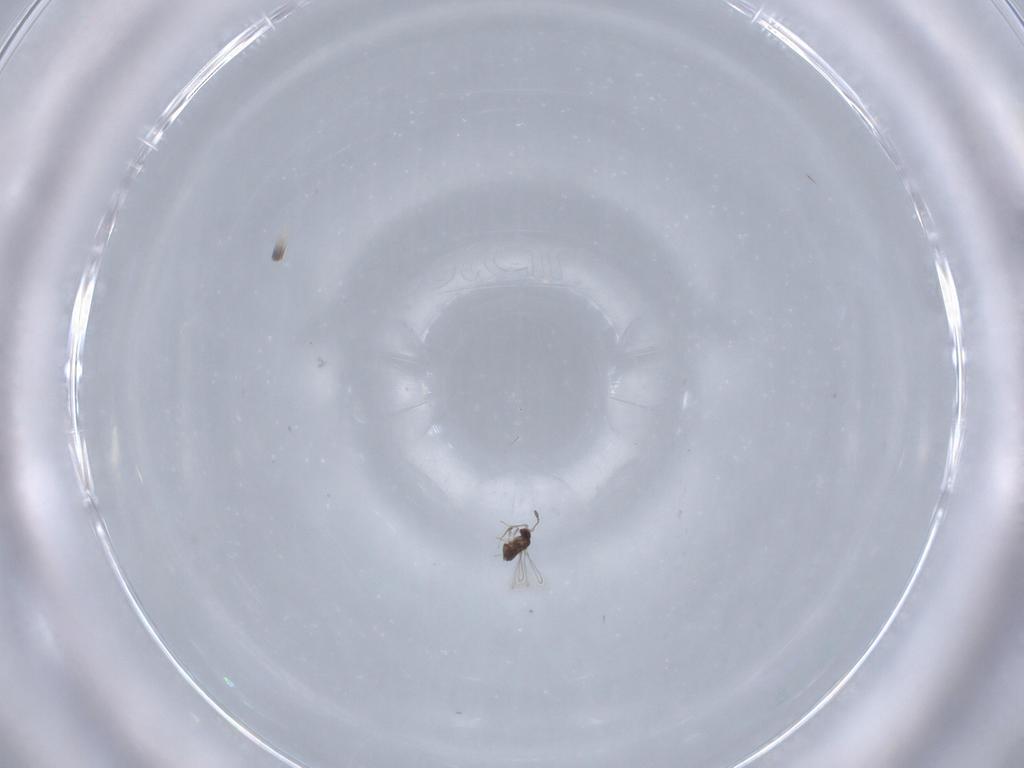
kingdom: Animalia
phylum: Arthropoda
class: Insecta
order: Hymenoptera
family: Mymaridae
